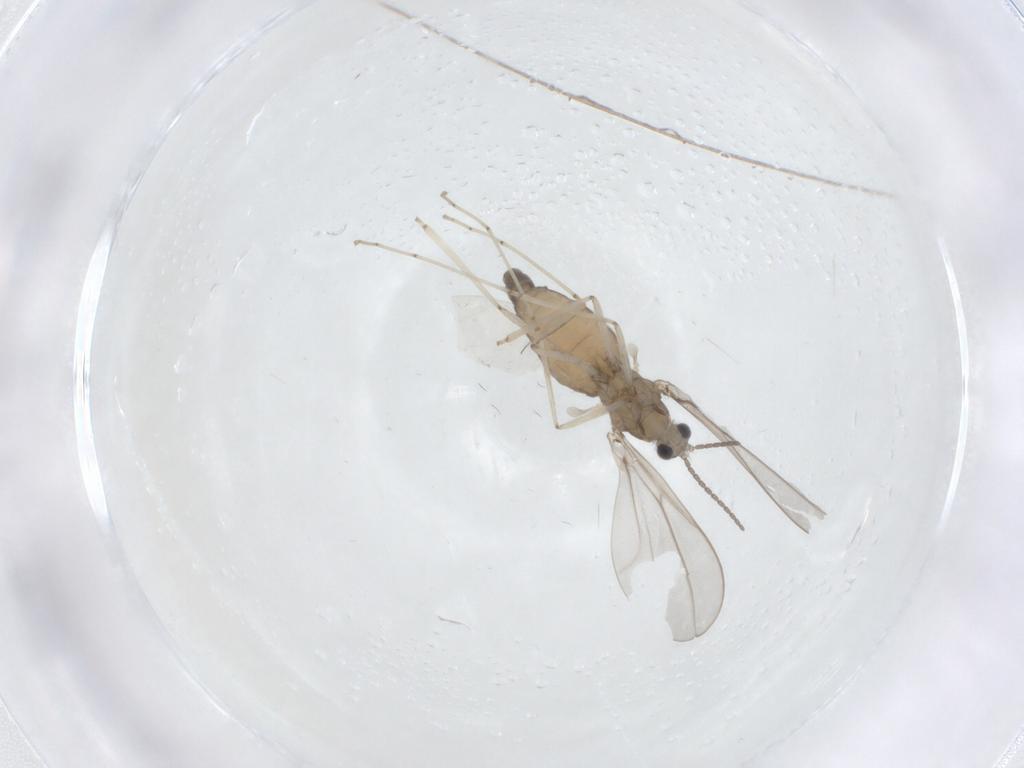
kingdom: Animalia
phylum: Arthropoda
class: Insecta
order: Diptera
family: Cecidomyiidae
